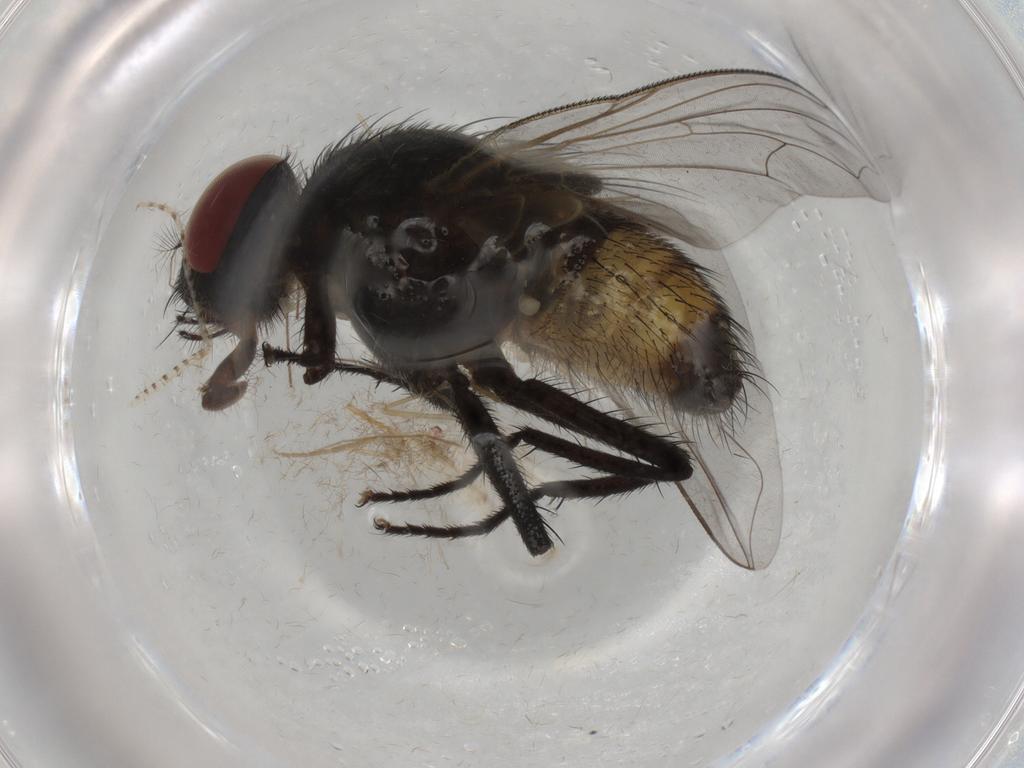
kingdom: Animalia
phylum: Arthropoda
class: Insecta
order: Diptera
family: Muscidae
